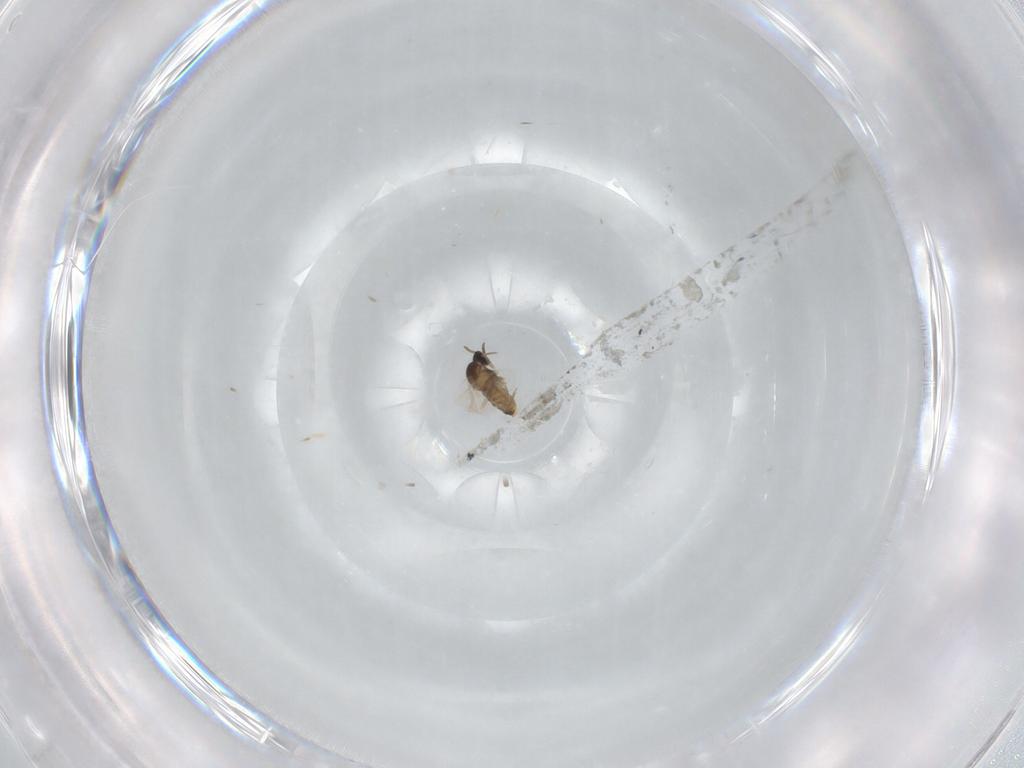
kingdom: Animalia
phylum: Arthropoda
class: Insecta
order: Diptera
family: Cecidomyiidae
